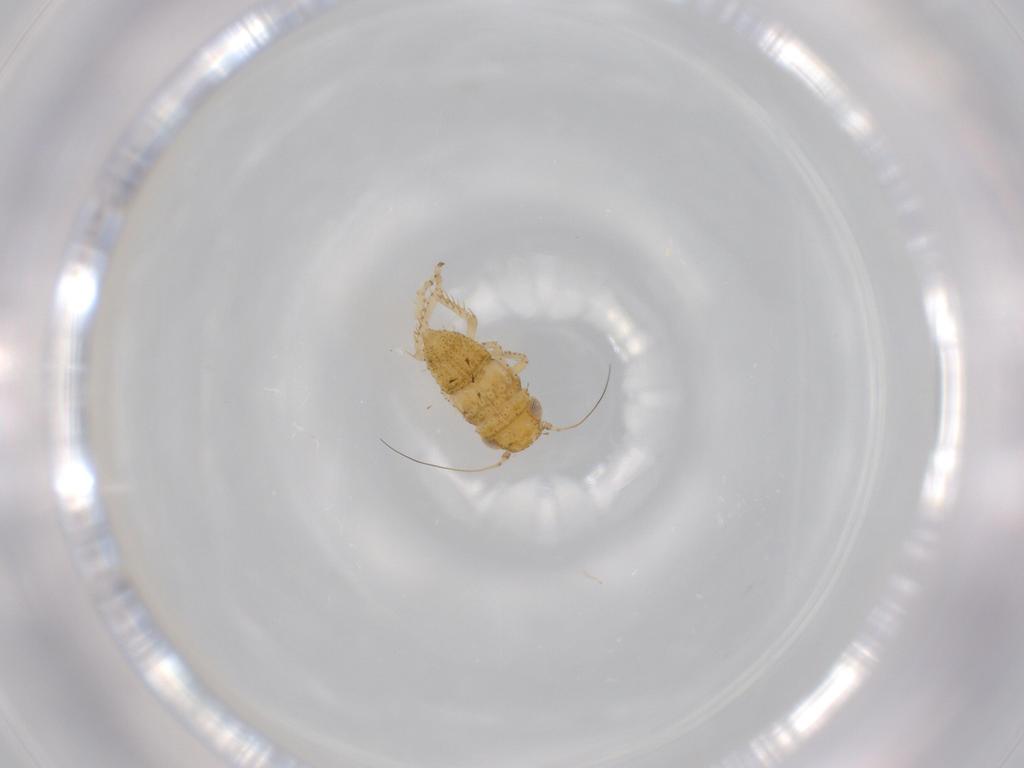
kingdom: Animalia
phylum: Arthropoda
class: Insecta
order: Hemiptera
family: Cicadellidae
